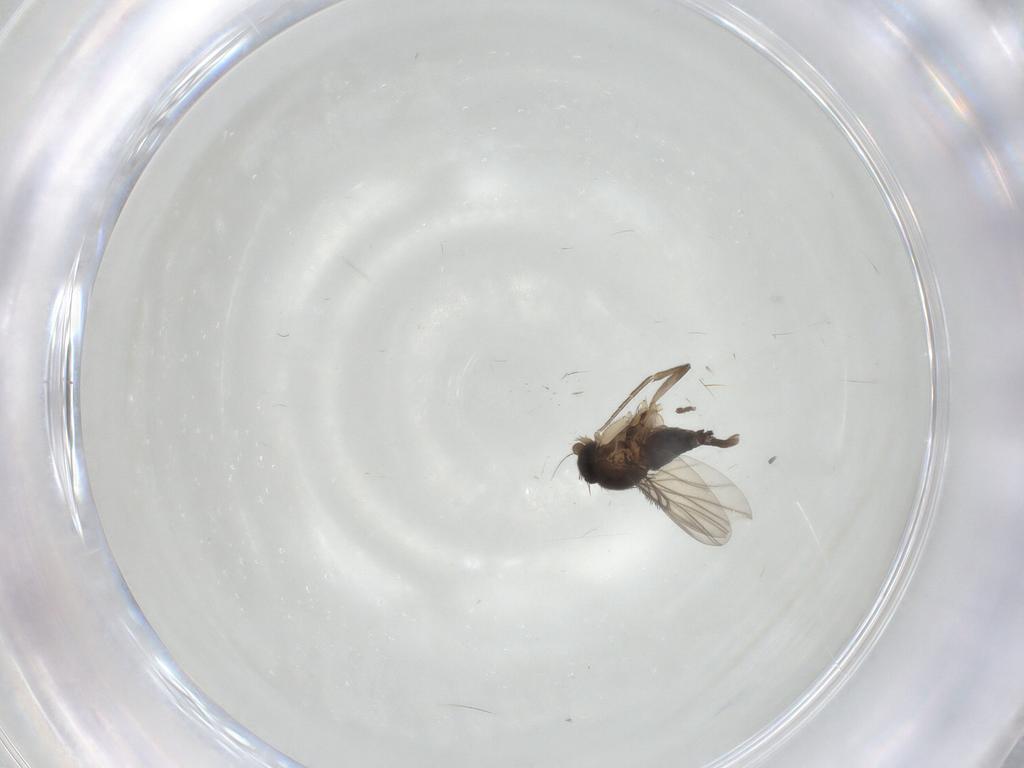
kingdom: Animalia
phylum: Arthropoda
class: Insecta
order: Diptera
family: Phoridae
